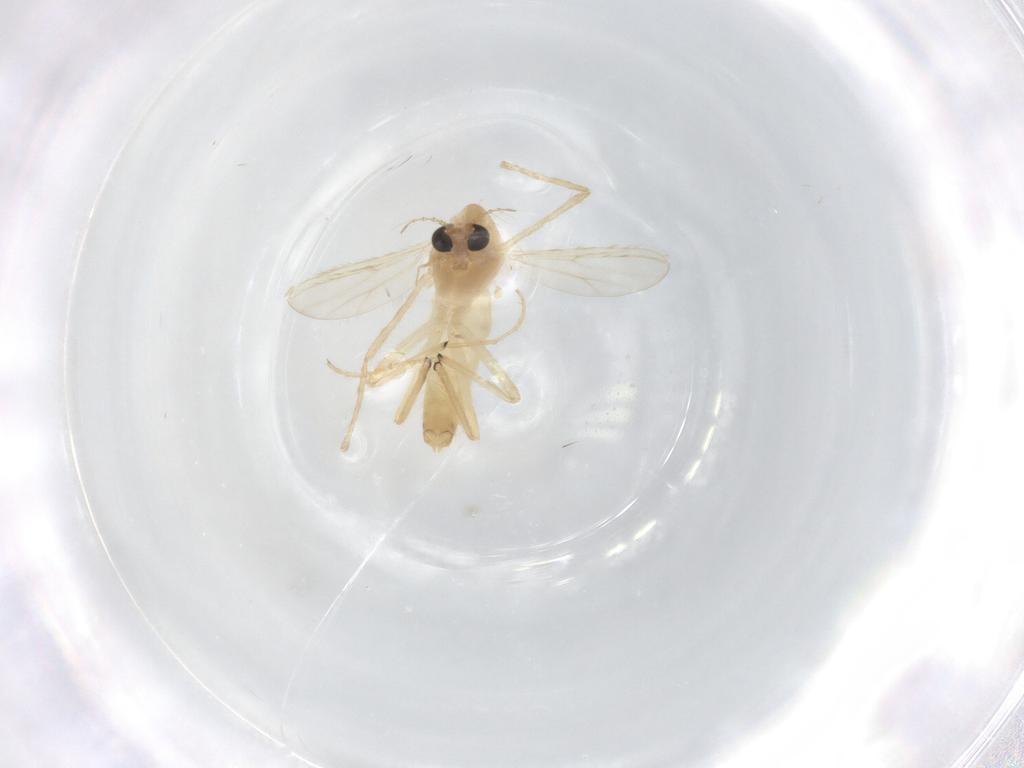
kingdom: Animalia
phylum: Arthropoda
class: Insecta
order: Diptera
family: Chironomidae
